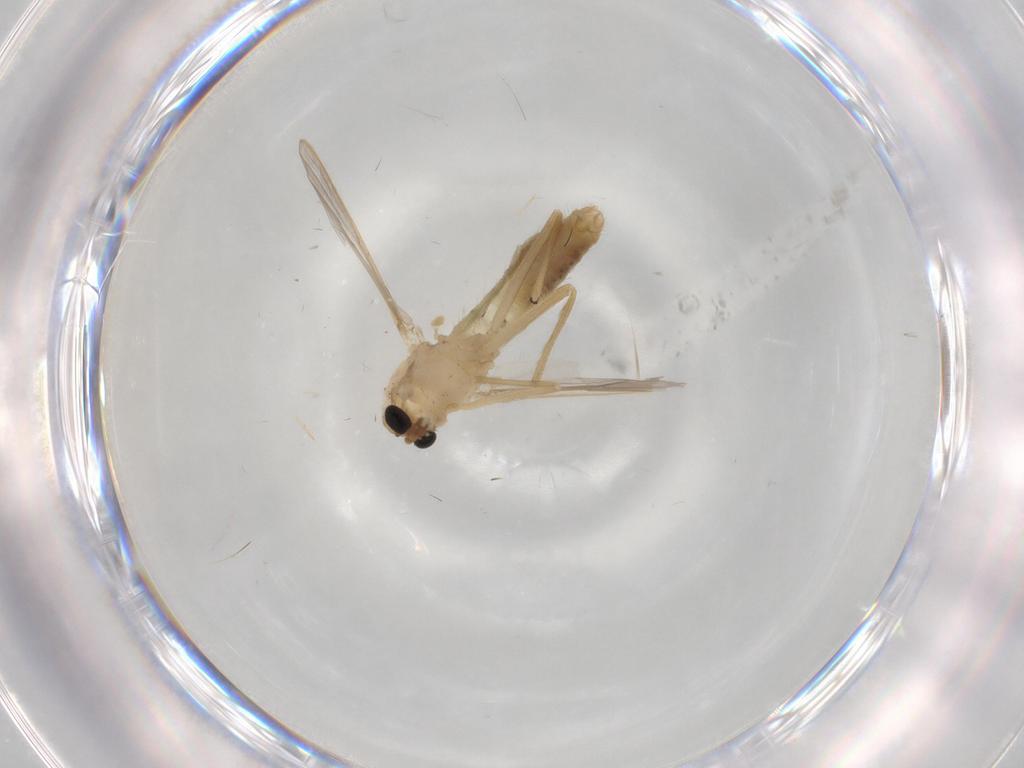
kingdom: Animalia
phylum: Arthropoda
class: Insecta
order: Diptera
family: Chironomidae
